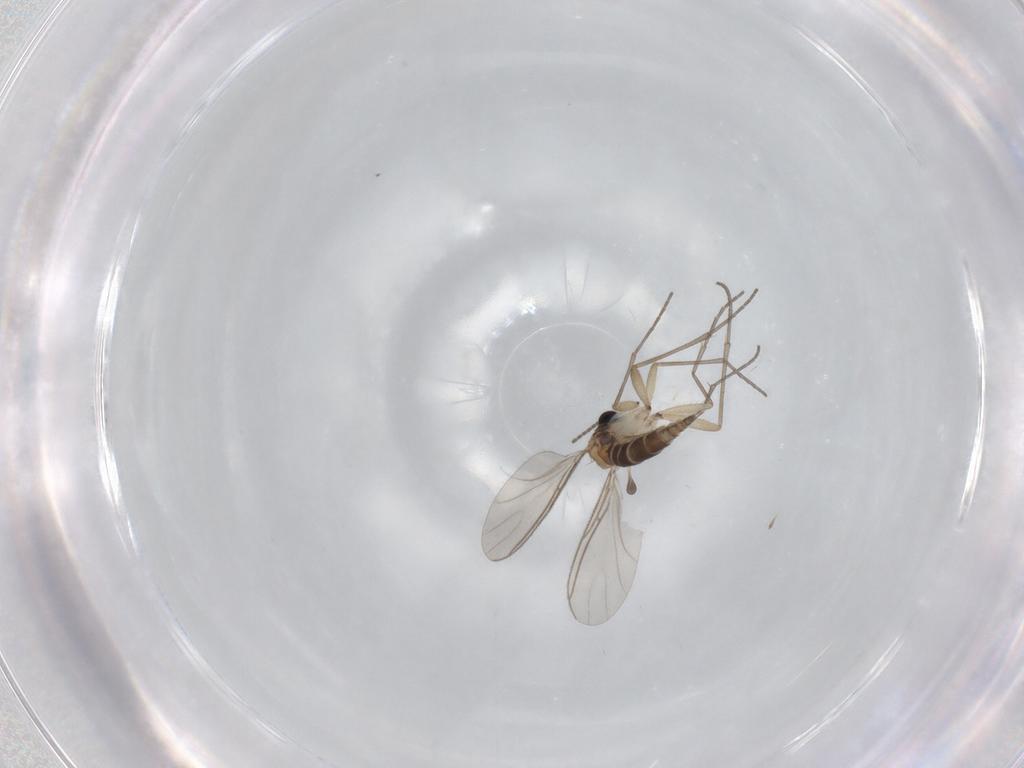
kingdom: Animalia
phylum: Arthropoda
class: Insecta
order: Diptera
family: Sciaridae
